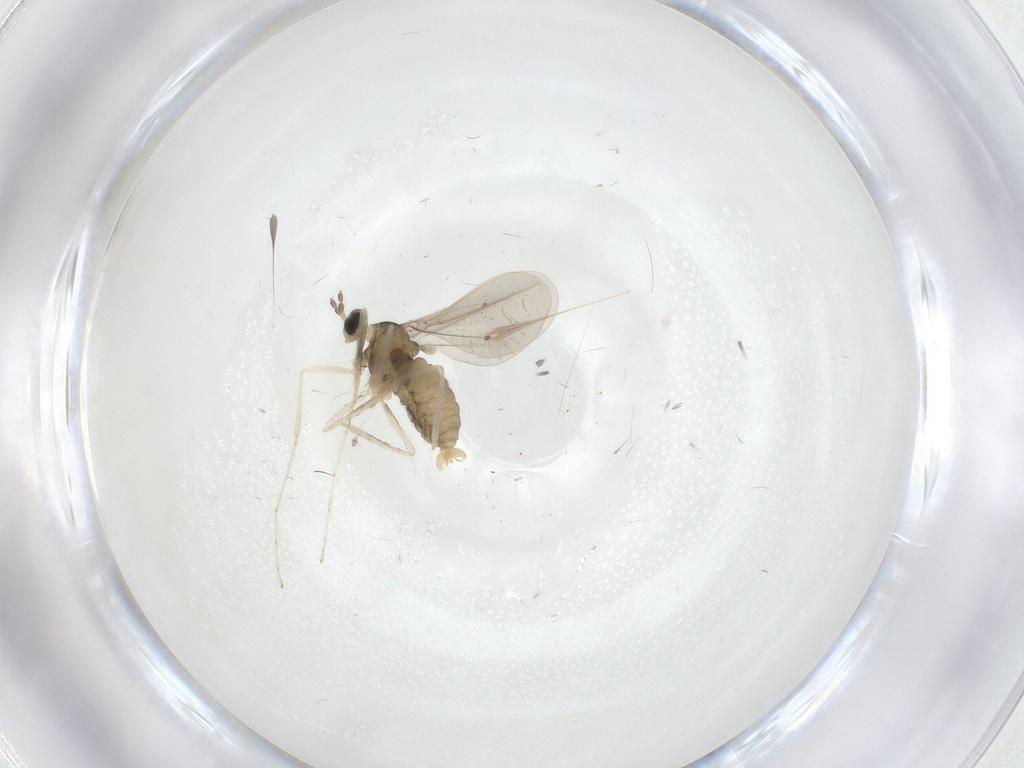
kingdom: Animalia
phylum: Arthropoda
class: Insecta
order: Diptera
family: Cecidomyiidae
